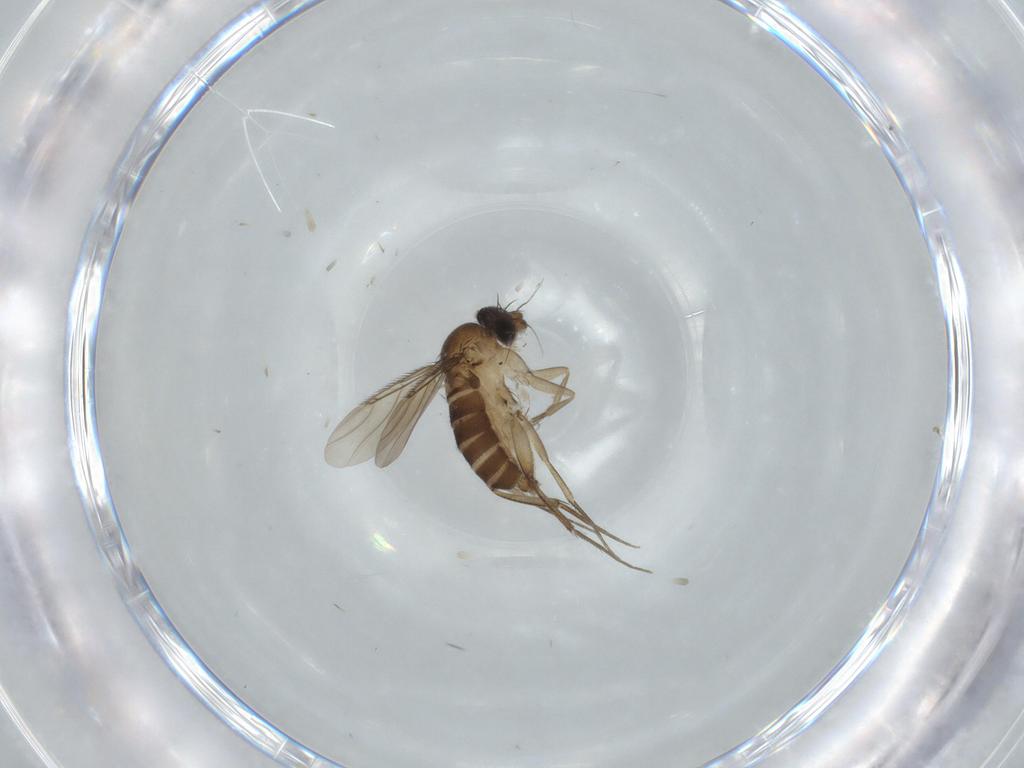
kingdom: Animalia
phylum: Arthropoda
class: Insecta
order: Diptera
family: Phoridae
